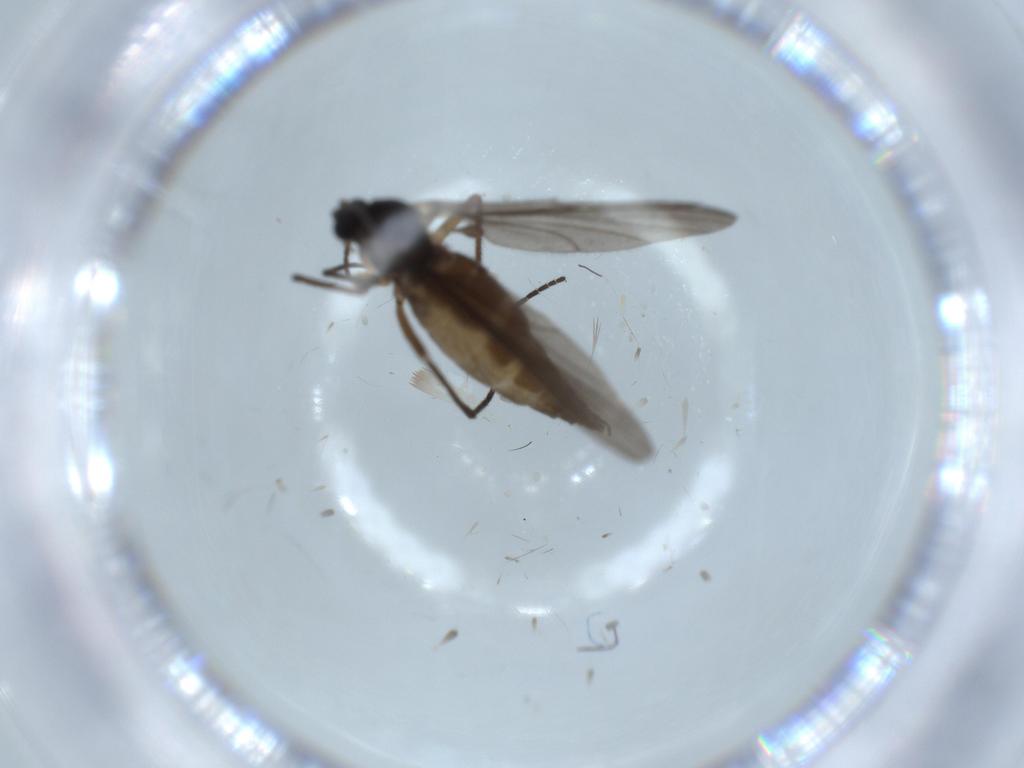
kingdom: Animalia
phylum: Arthropoda
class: Insecta
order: Diptera
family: Sciaridae
